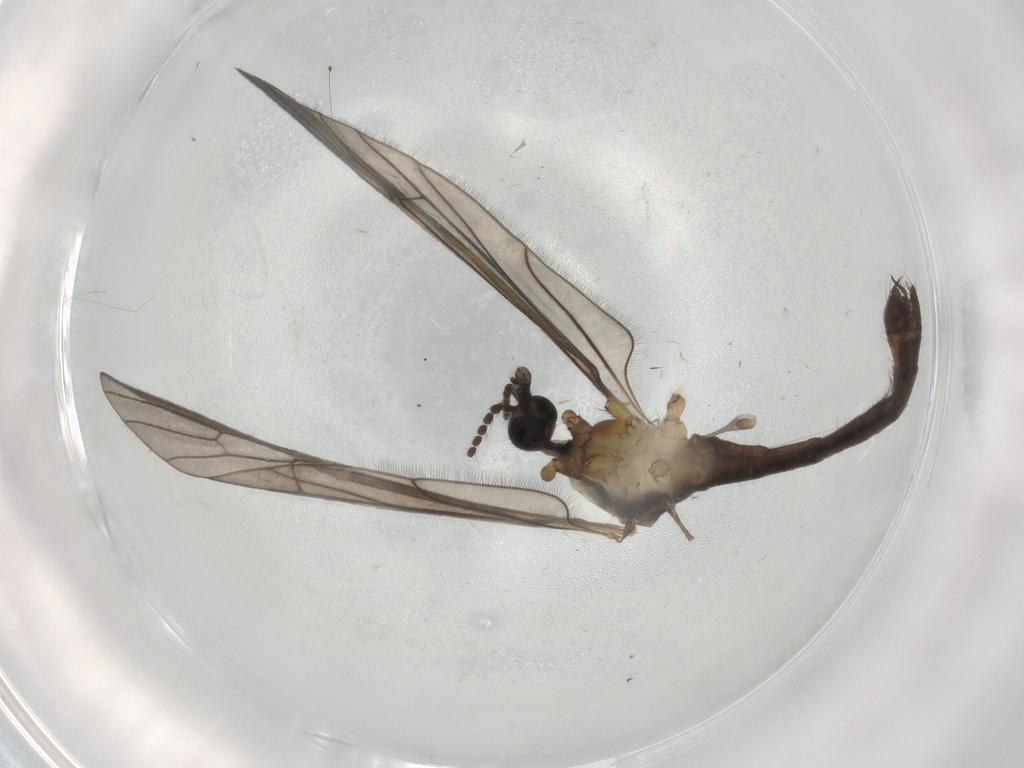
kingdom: Animalia
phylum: Arthropoda
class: Insecta
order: Diptera
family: Limoniidae
